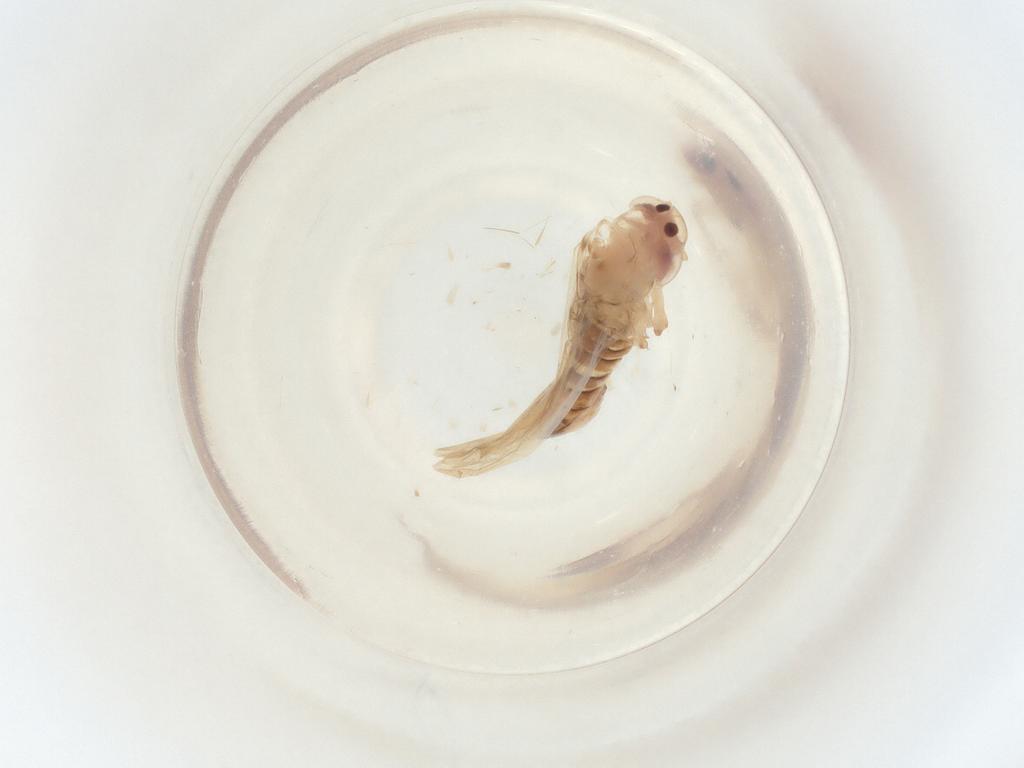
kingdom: Animalia
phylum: Arthropoda
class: Insecta
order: Hemiptera
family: Cicadellidae
